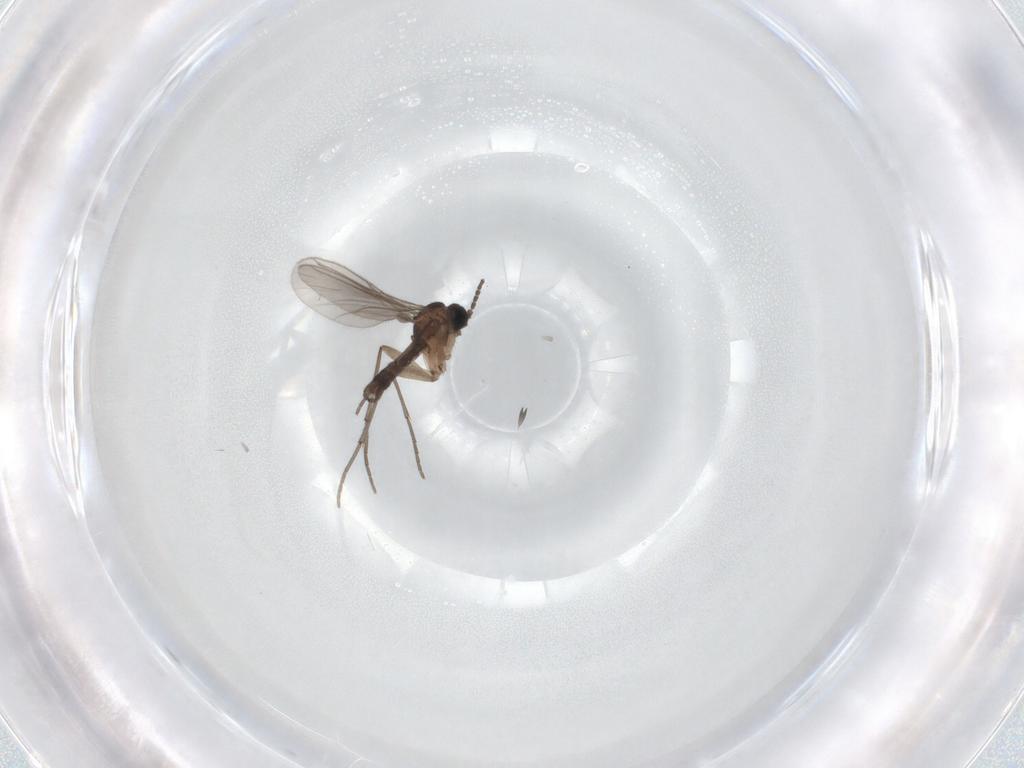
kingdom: Animalia
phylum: Arthropoda
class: Insecta
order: Diptera
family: Sciaridae
